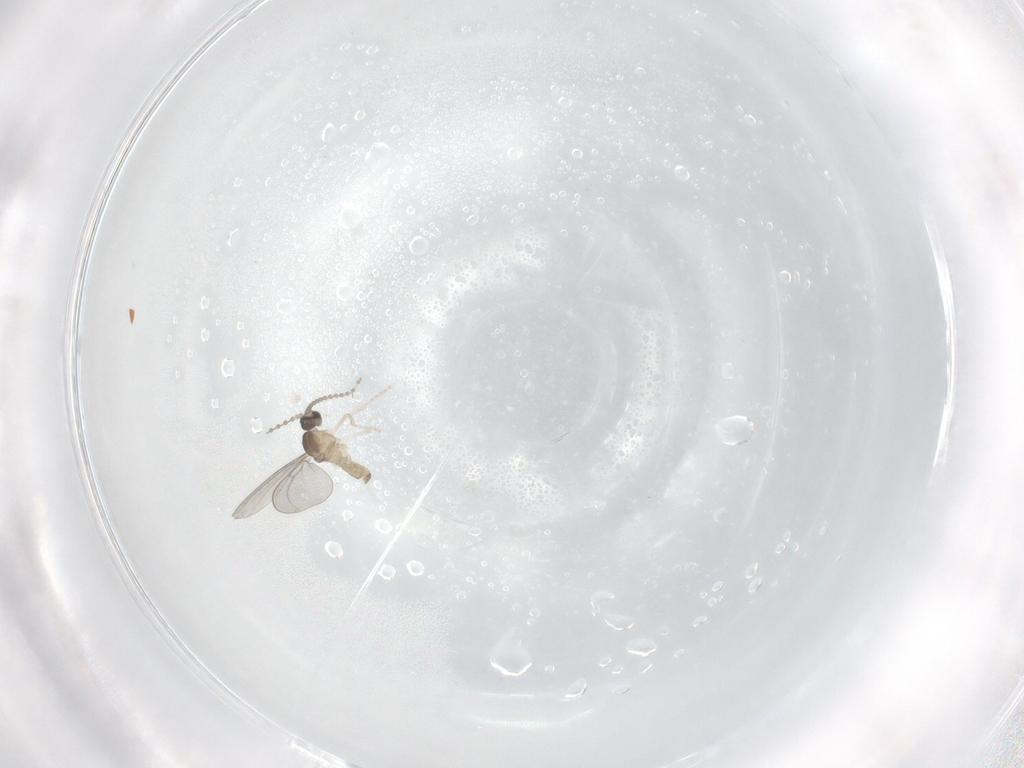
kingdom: Animalia
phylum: Arthropoda
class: Insecta
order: Diptera
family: Cecidomyiidae
